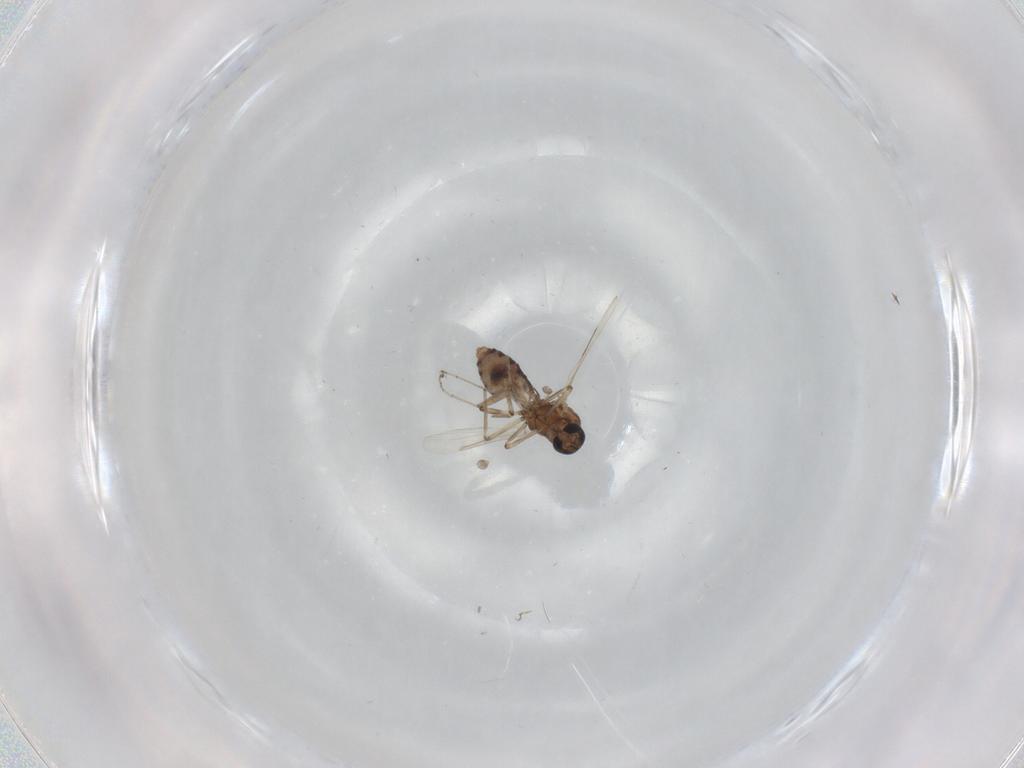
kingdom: Animalia
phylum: Arthropoda
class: Insecta
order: Diptera
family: Ceratopogonidae
